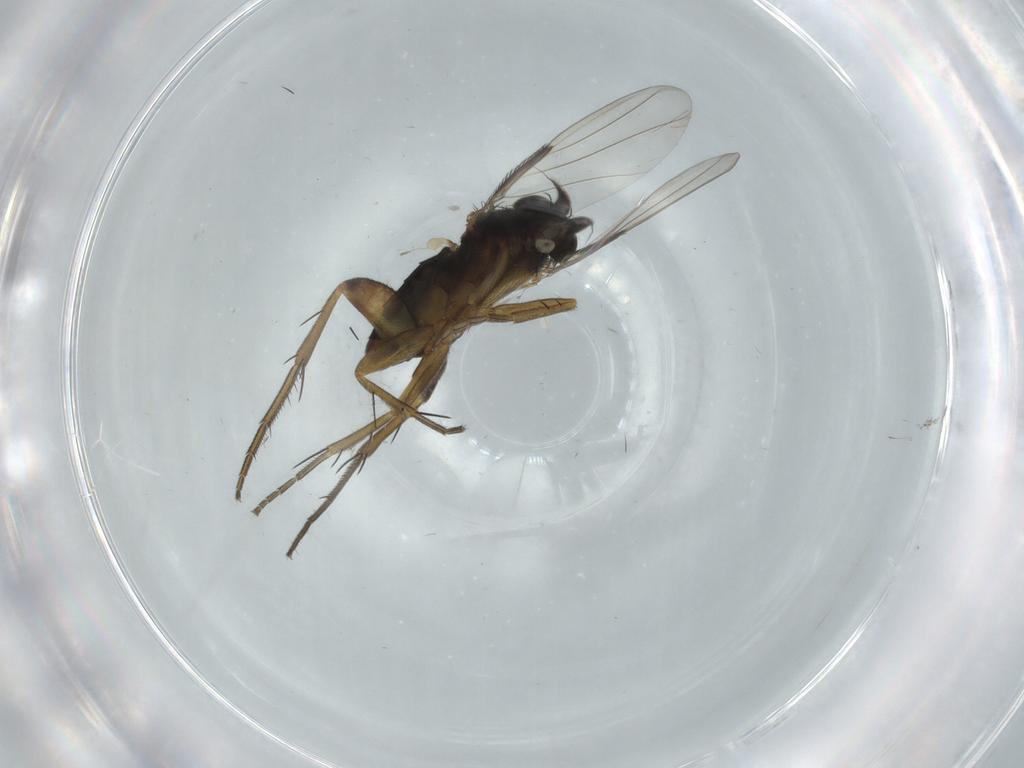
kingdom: Animalia
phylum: Arthropoda
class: Insecta
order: Diptera
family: Phoridae
